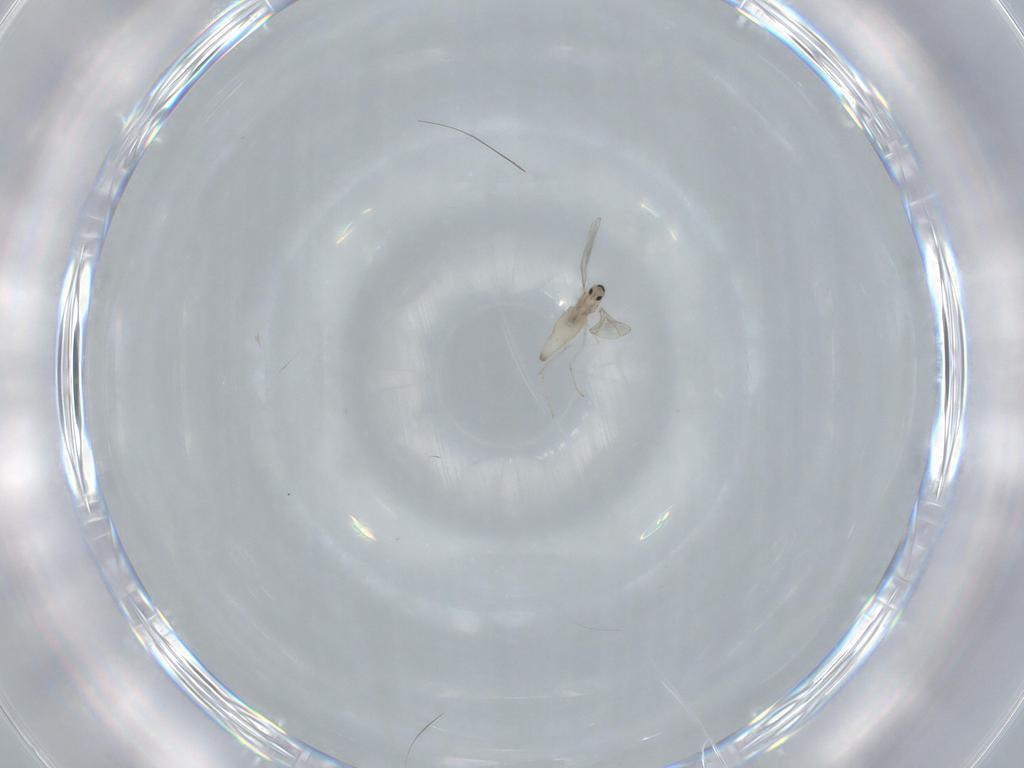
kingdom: Animalia
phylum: Arthropoda
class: Insecta
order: Diptera
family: Cecidomyiidae
